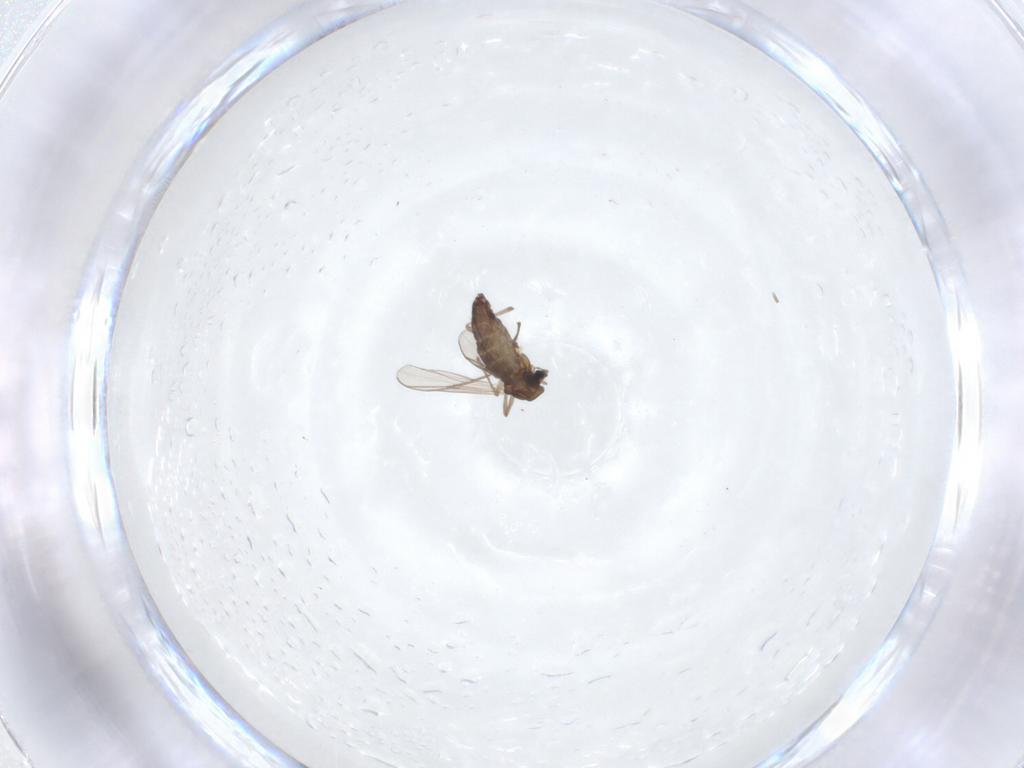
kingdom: Animalia
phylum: Arthropoda
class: Insecta
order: Diptera
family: Chironomidae
